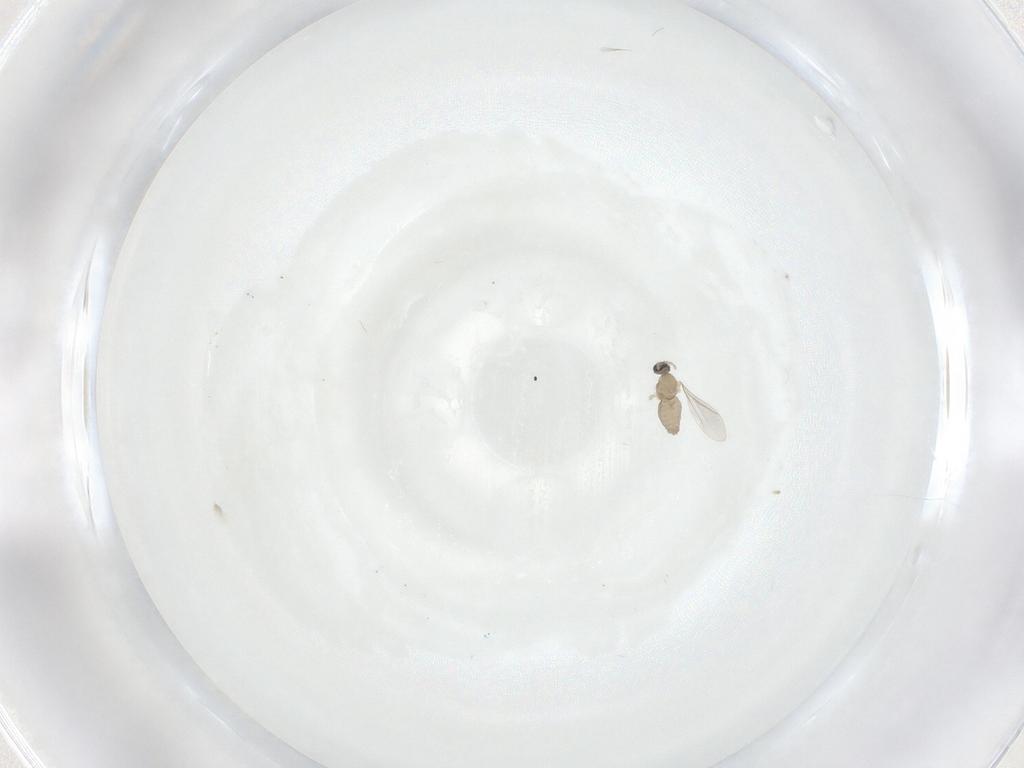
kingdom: Animalia
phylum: Arthropoda
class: Insecta
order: Diptera
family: Cecidomyiidae
